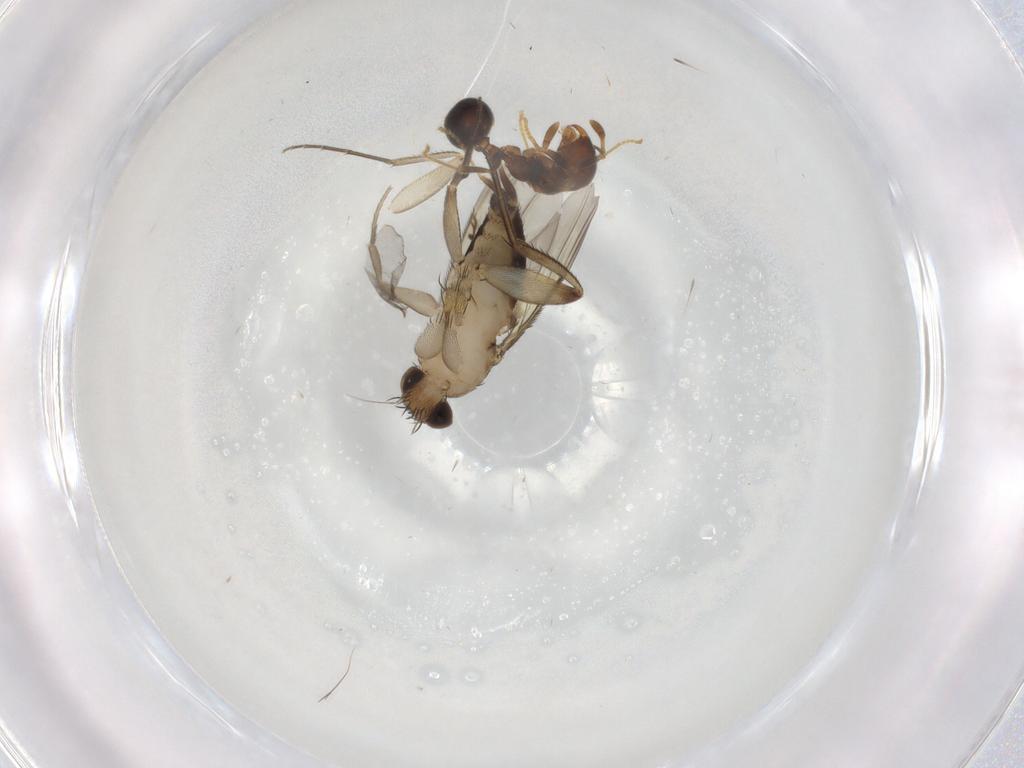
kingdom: Animalia
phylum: Arthropoda
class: Insecta
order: Diptera
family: Phoridae
